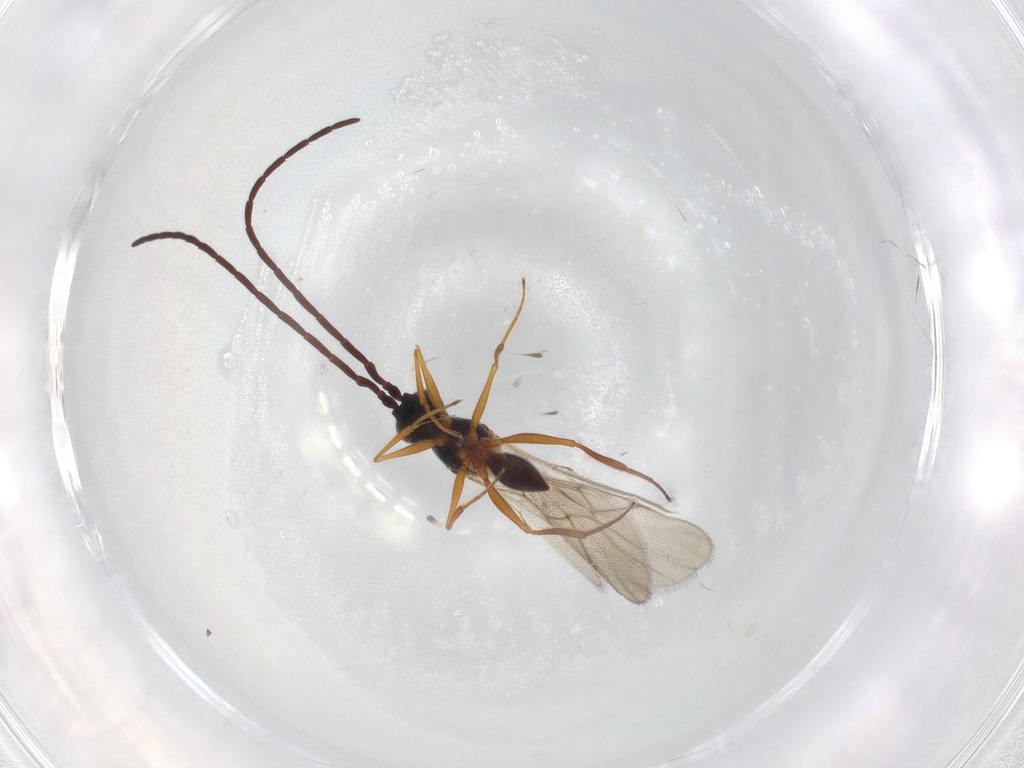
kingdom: Animalia
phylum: Arthropoda
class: Insecta
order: Hymenoptera
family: Figitidae
